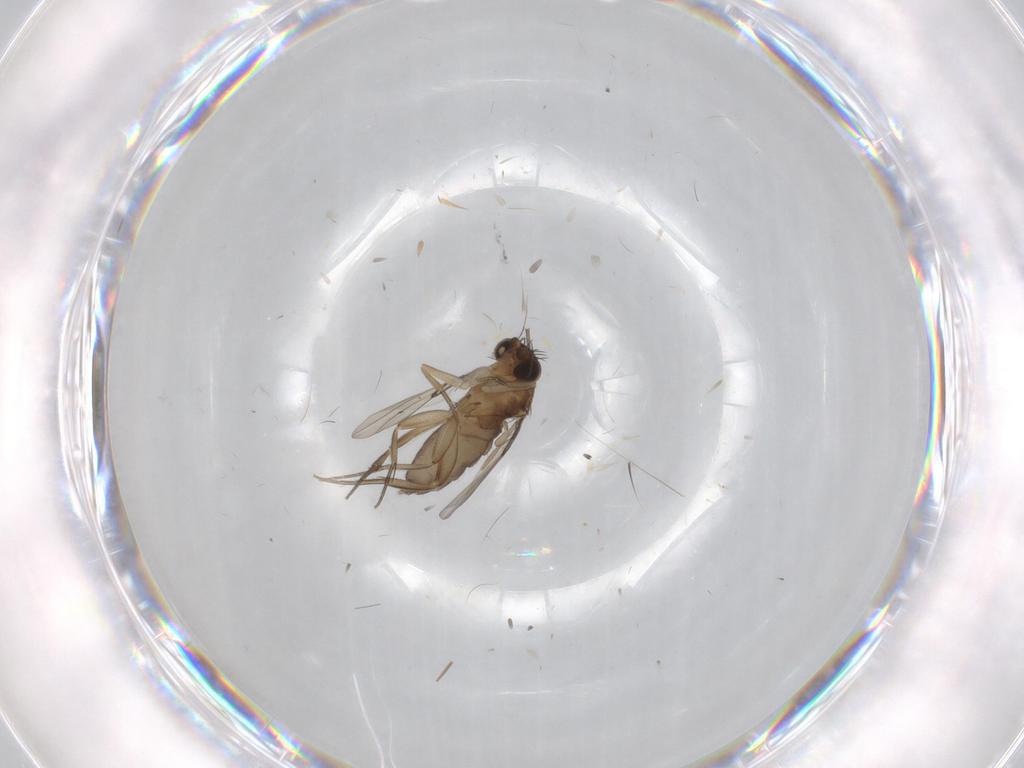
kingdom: Animalia
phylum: Arthropoda
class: Insecta
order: Diptera
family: Phoridae
